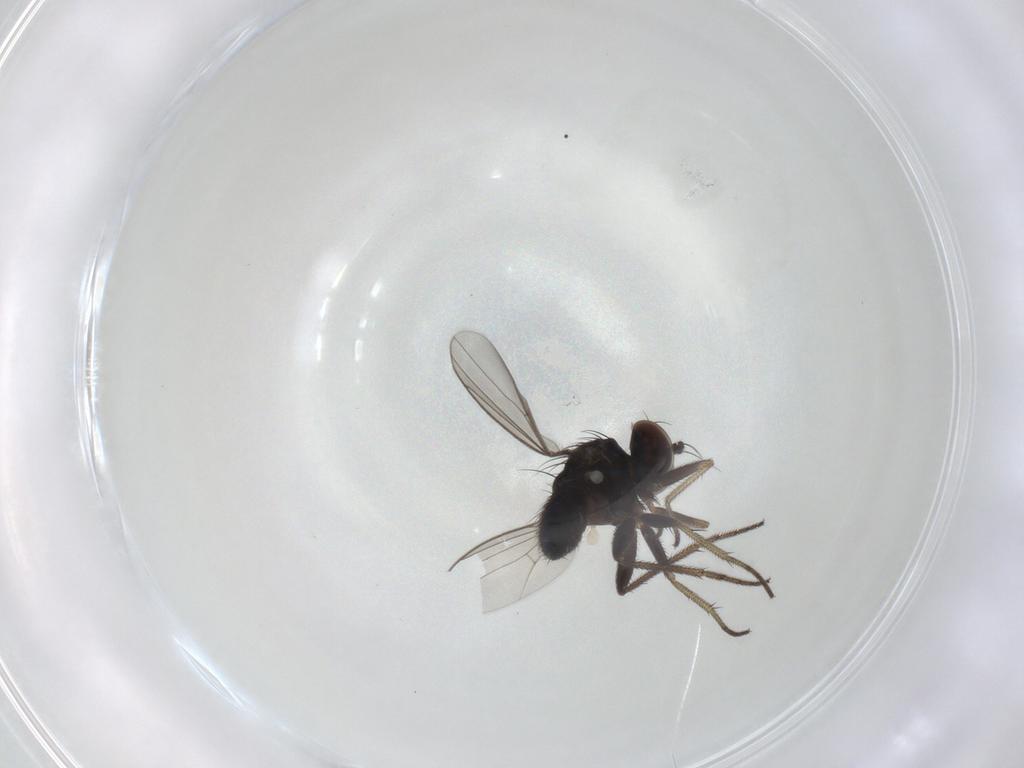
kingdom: Animalia
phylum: Arthropoda
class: Insecta
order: Diptera
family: Dolichopodidae
